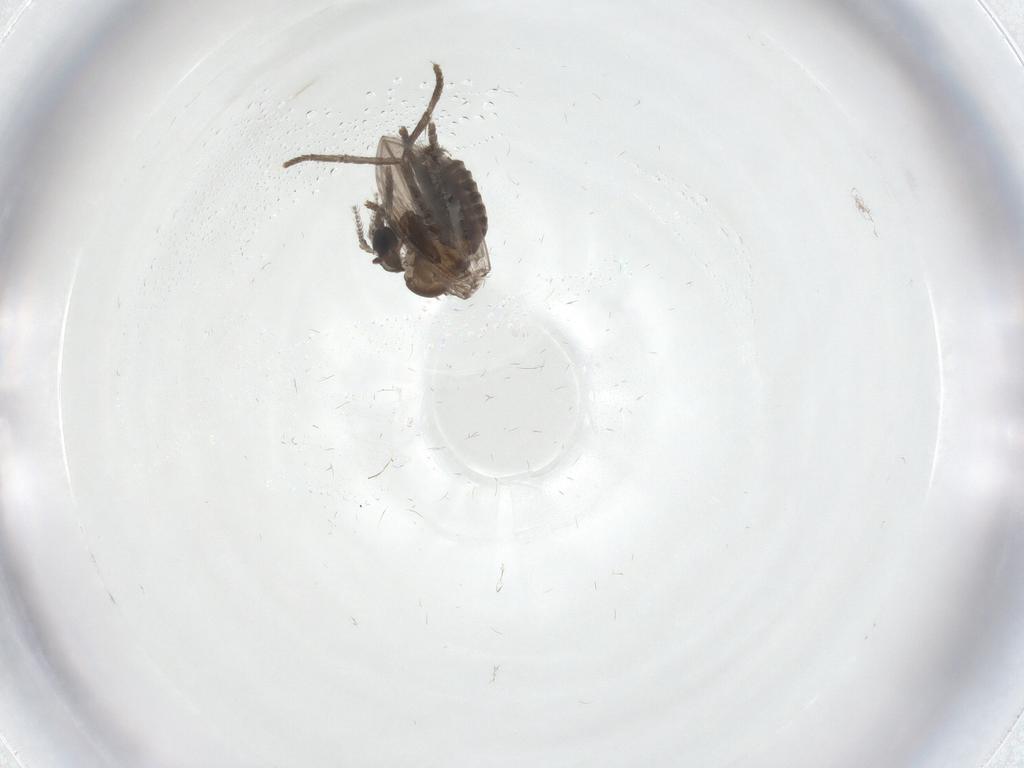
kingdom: Animalia
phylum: Arthropoda
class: Insecta
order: Diptera
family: Psychodidae
